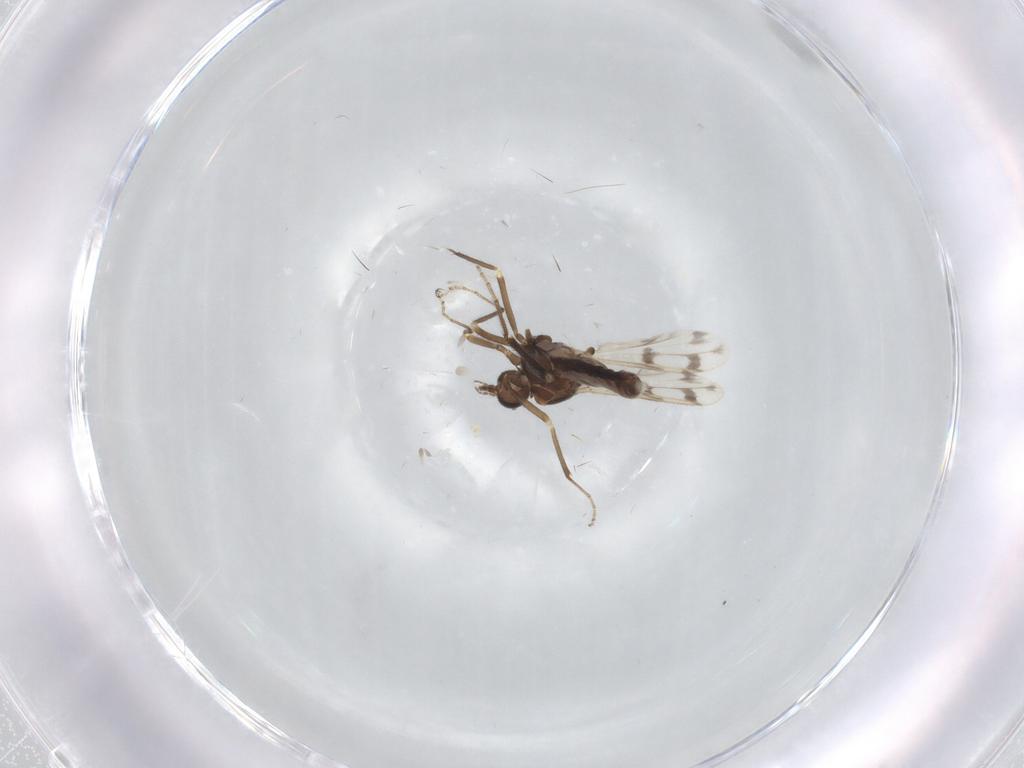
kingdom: Animalia
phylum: Arthropoda
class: Insecta
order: Diptera
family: Ceratopogonidae
